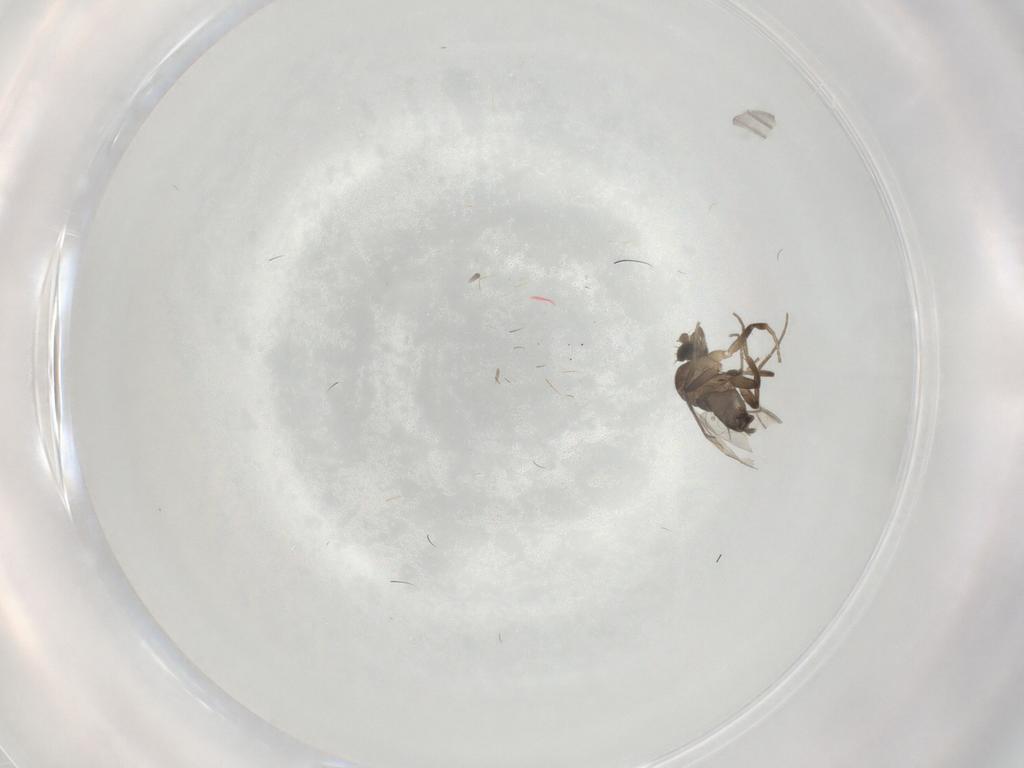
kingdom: Animalia
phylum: Arthropoda
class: Insecta
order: Diptera
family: Phoridae
